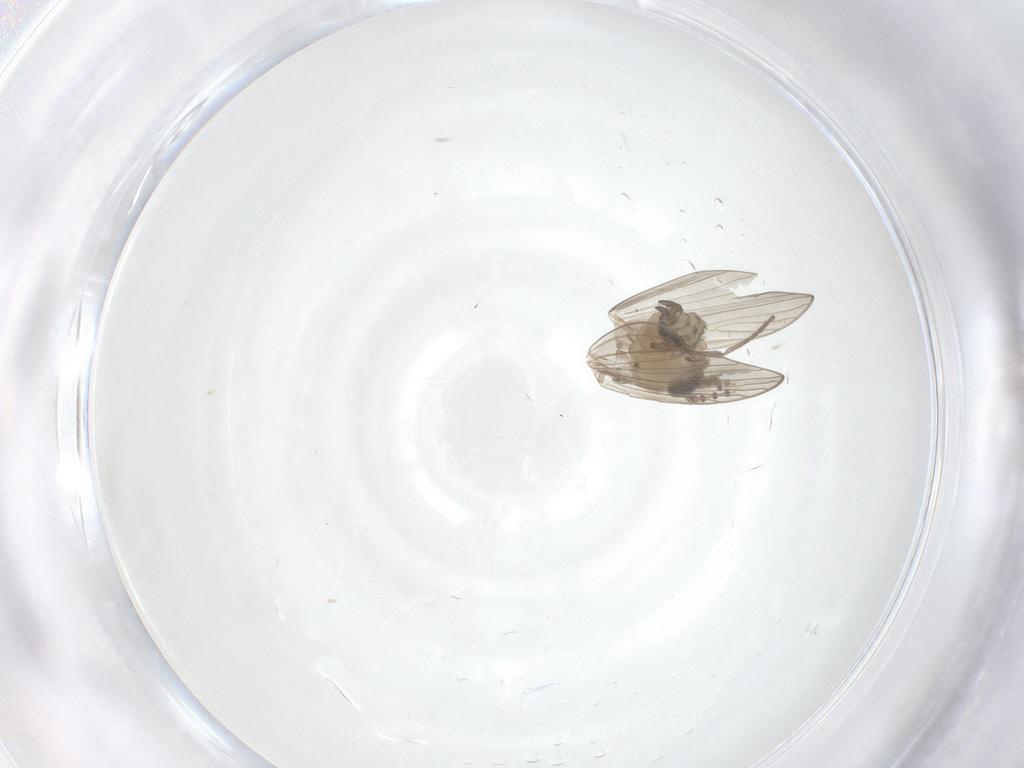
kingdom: Animalia
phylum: Arthropoda
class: Insecta
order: Diptera
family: Psychodidae
